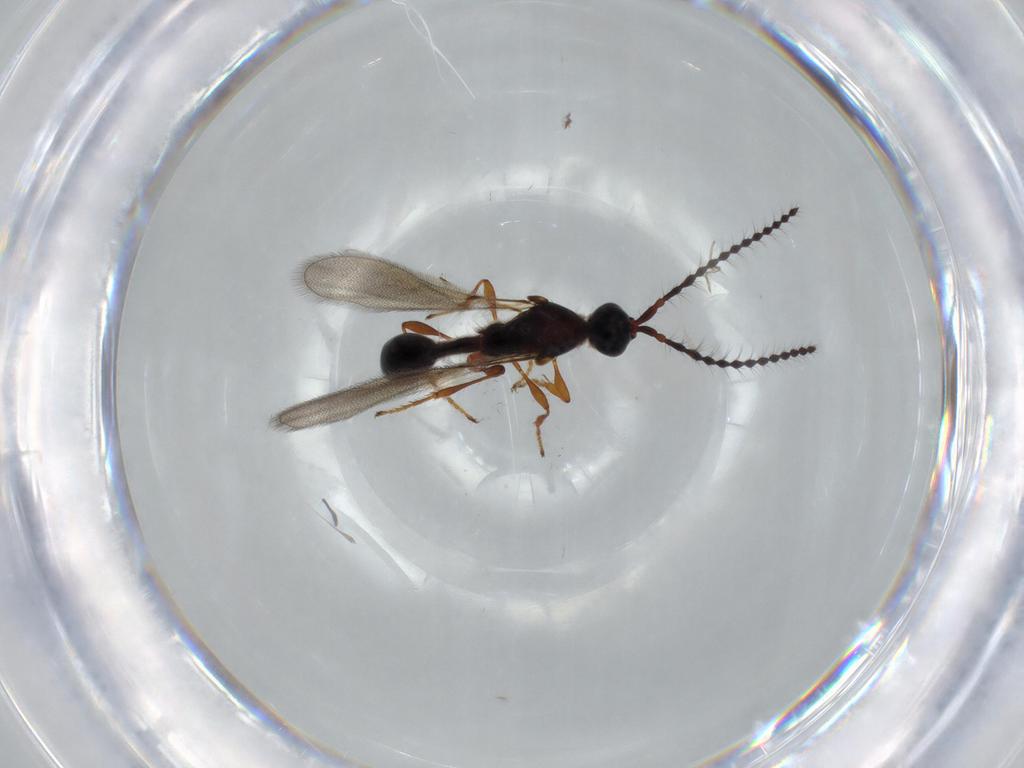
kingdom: Animalia
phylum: Arthropoda
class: Insecta
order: Hymenoptera
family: Diapriidae
